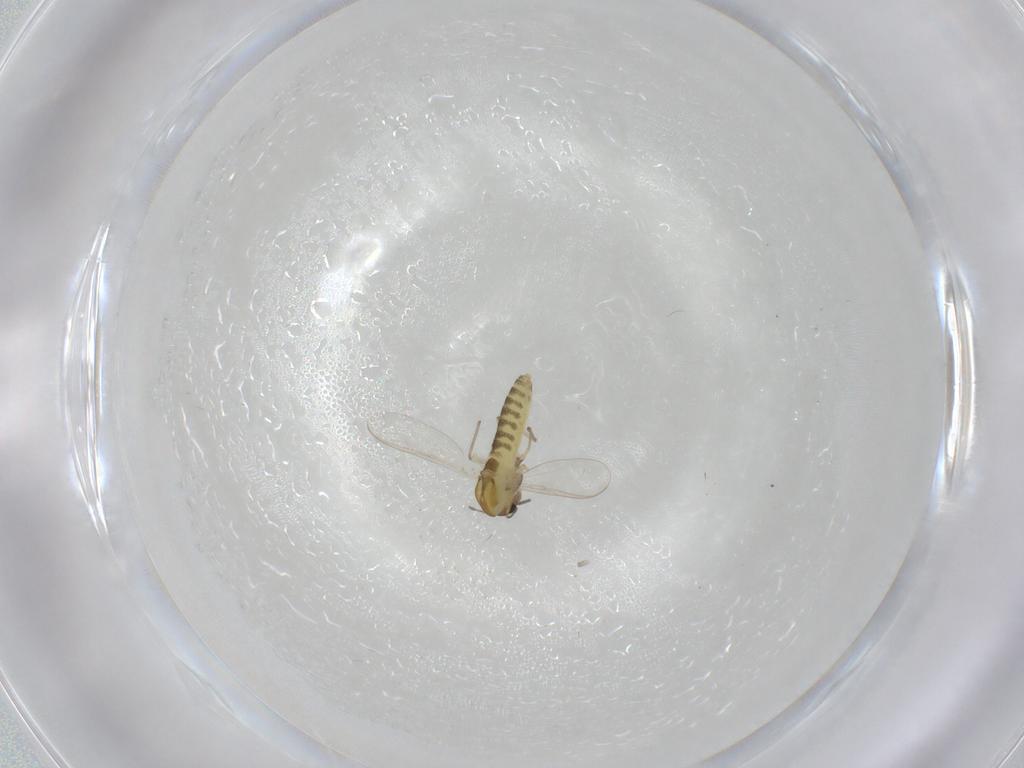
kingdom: Animalia
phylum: Arthropoda
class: Insecta
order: Diptera
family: Chironomidae
